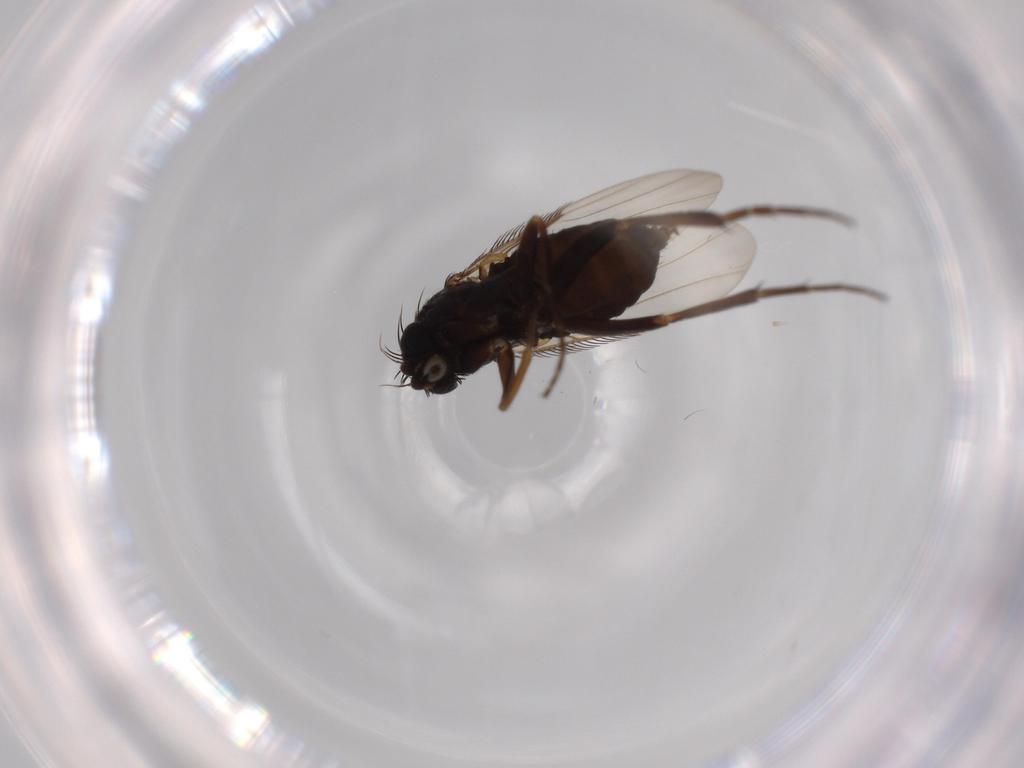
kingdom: Animalia
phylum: Arthropoda
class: Insecta
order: Diptera
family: Phoridae
